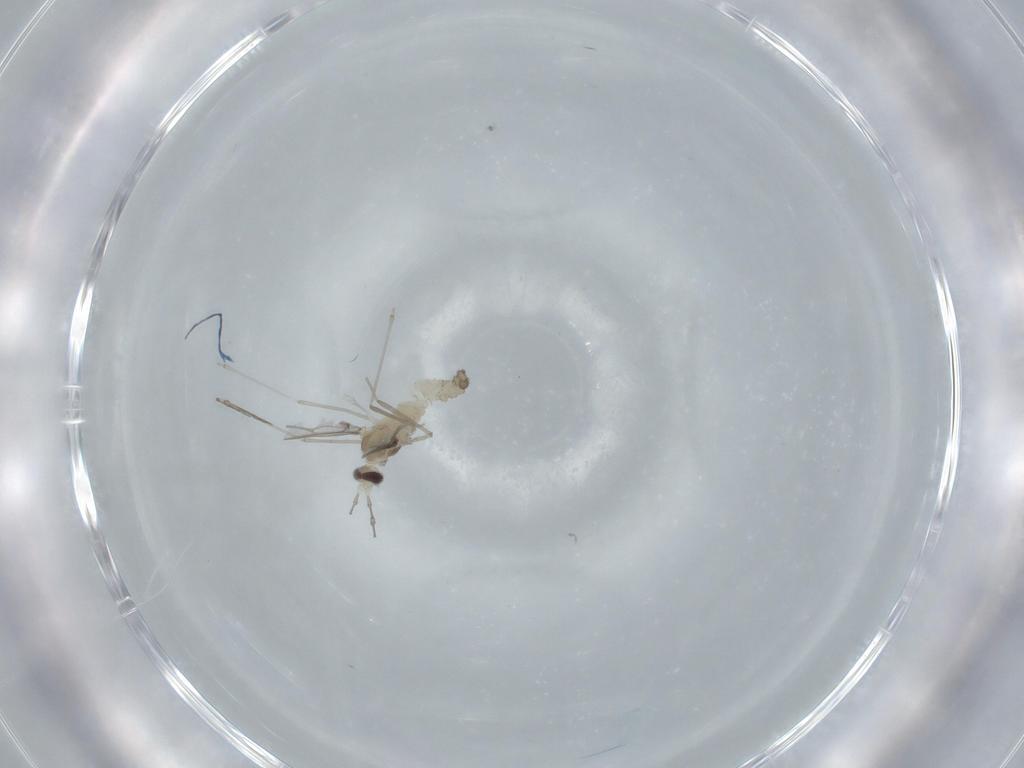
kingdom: Animalia
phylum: Arthropoda
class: Insecta
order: Diptera
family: Cecidomyiidae
